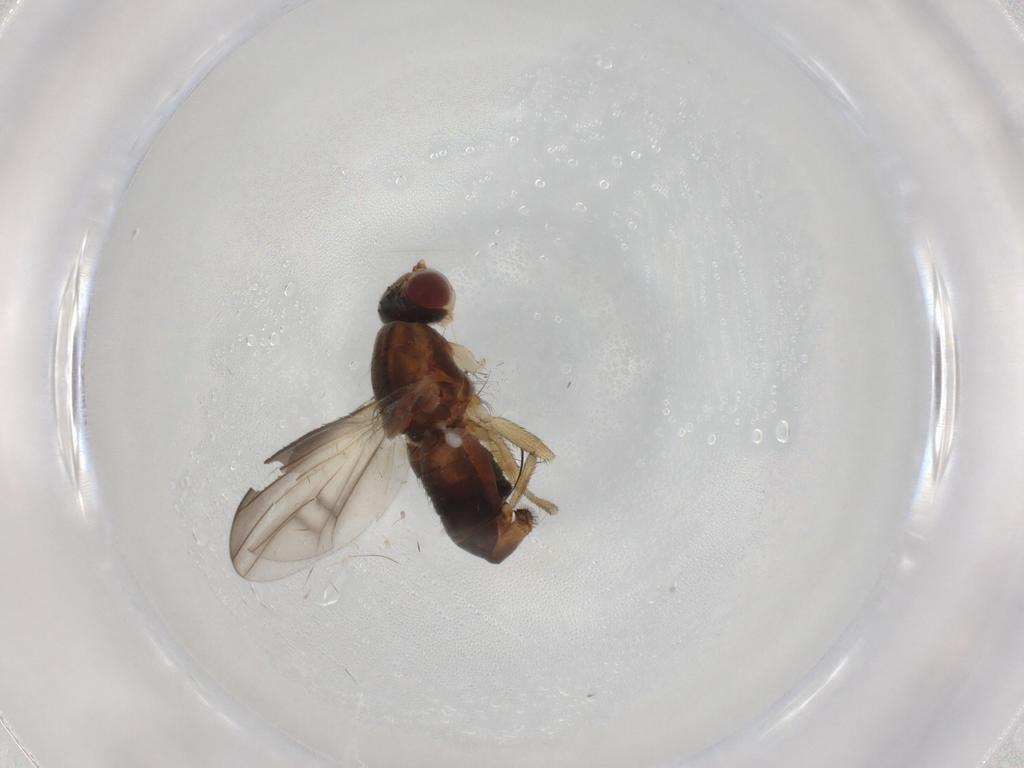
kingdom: Animalia
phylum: Arthropoda
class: Insecta
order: Diptera
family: Heleomyzidae
